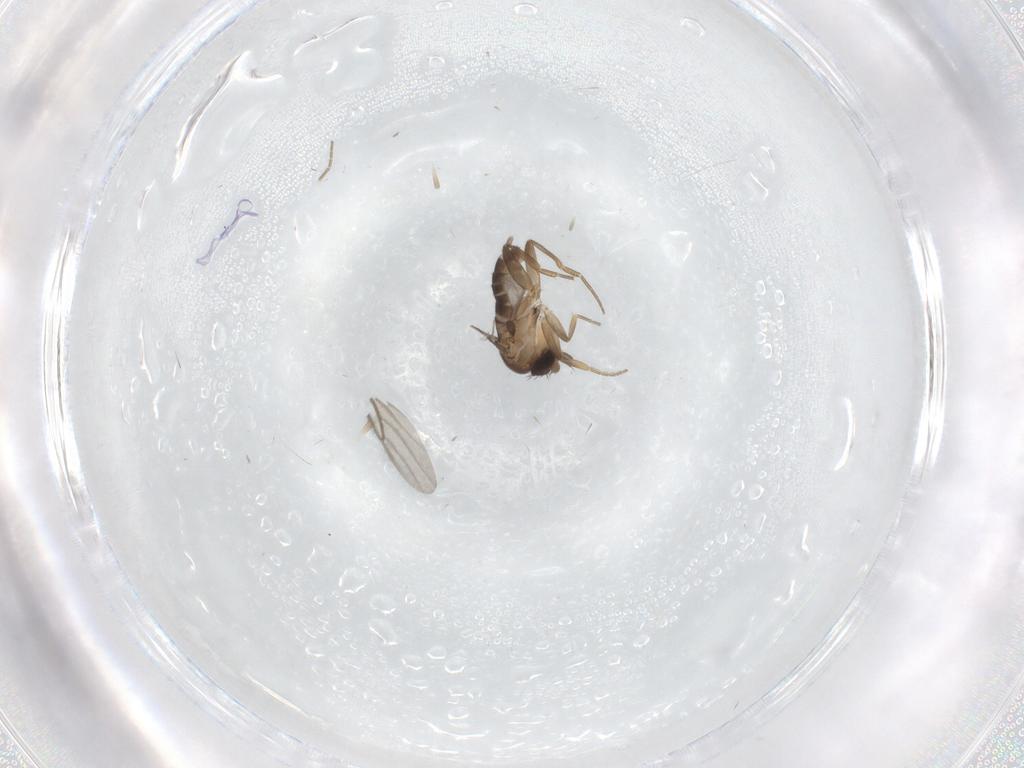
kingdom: Animalia
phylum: Arthropoda
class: Insecta
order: Diptera
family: Phoridae
